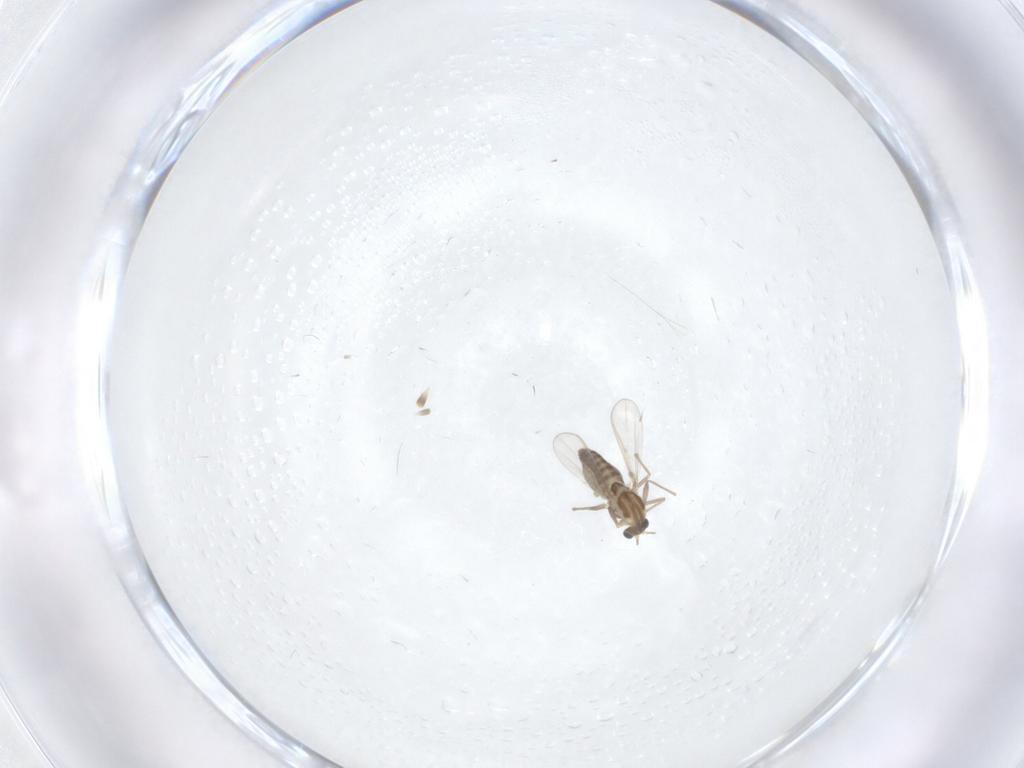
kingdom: Animalia
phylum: Arthropoda
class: Insecta
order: Diptera
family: Chironomidae
